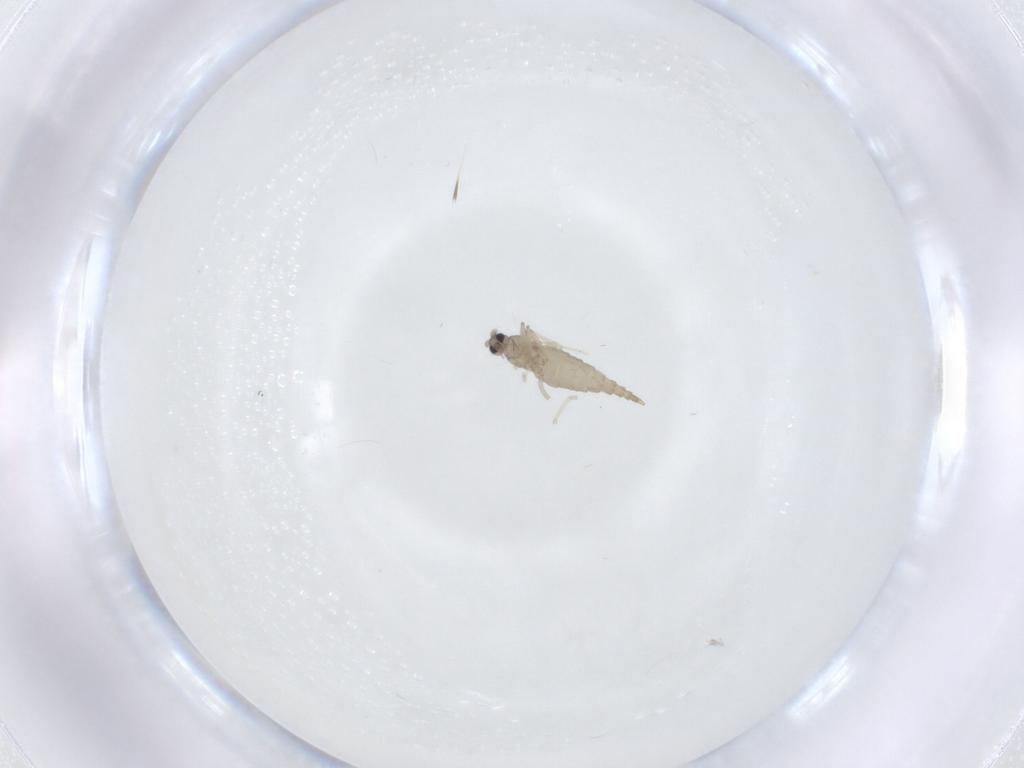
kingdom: Animalia
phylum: Arthropoda
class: Insecta
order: Diptera
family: Cecidomyiidae
